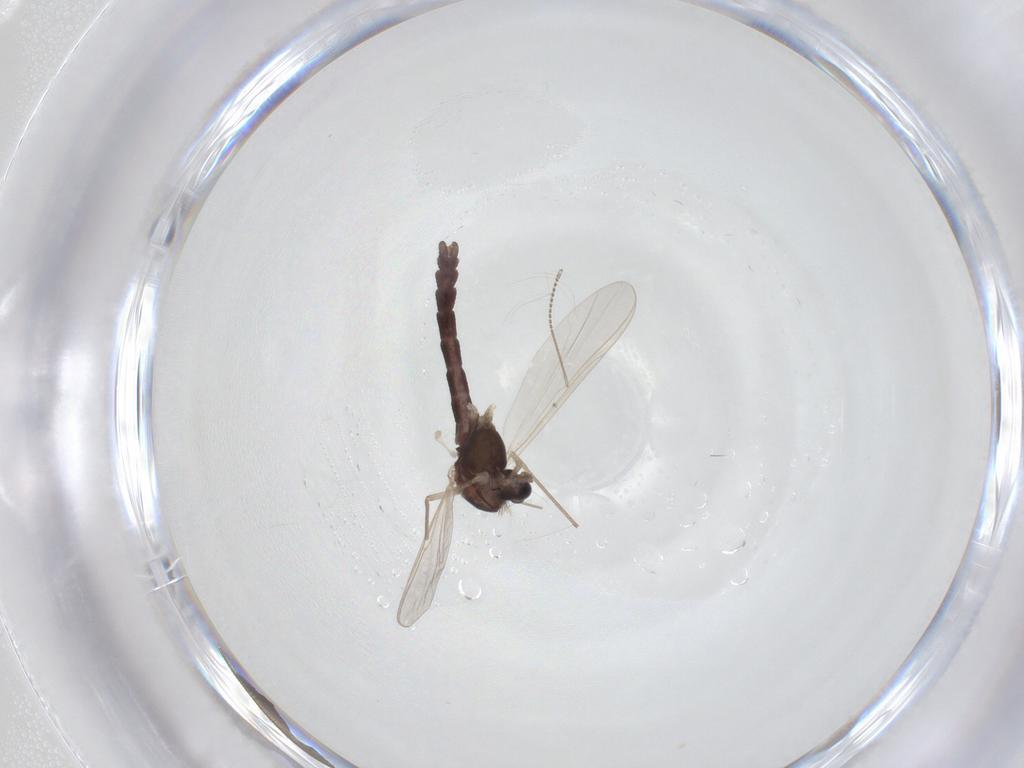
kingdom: Animalia
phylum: Arthropoda
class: Insecta
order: Diptera
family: Chironomidae
